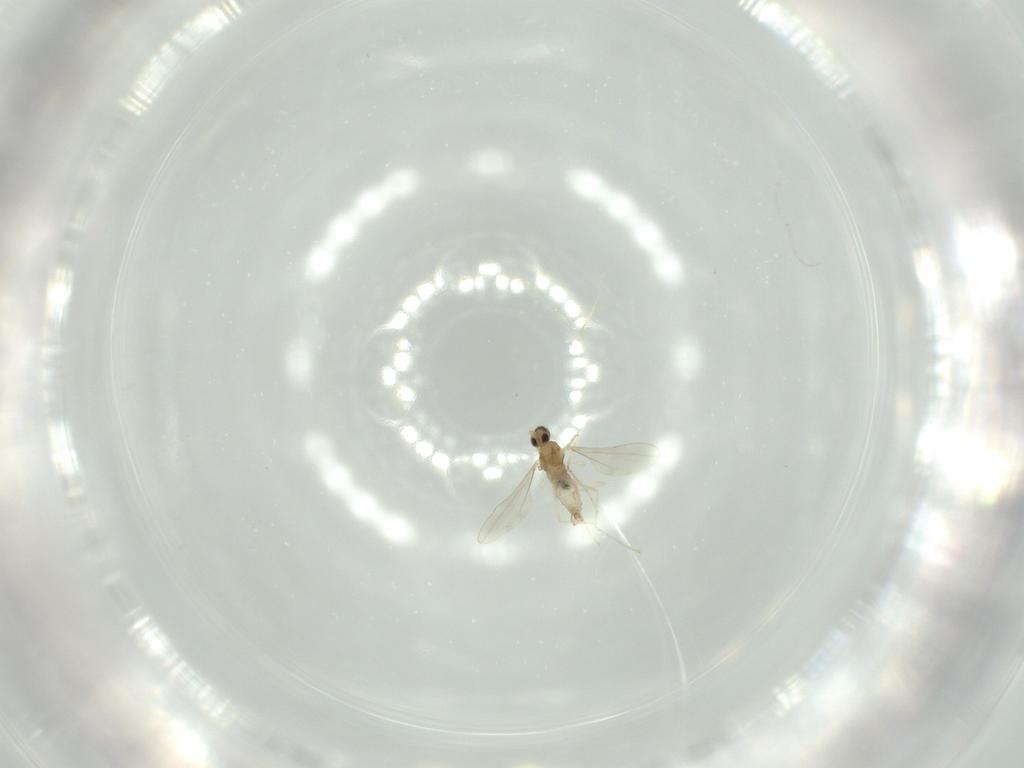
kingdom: Animalia
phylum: Arthropoda
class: Insecta
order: Diptera
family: Cecidomyiidae
